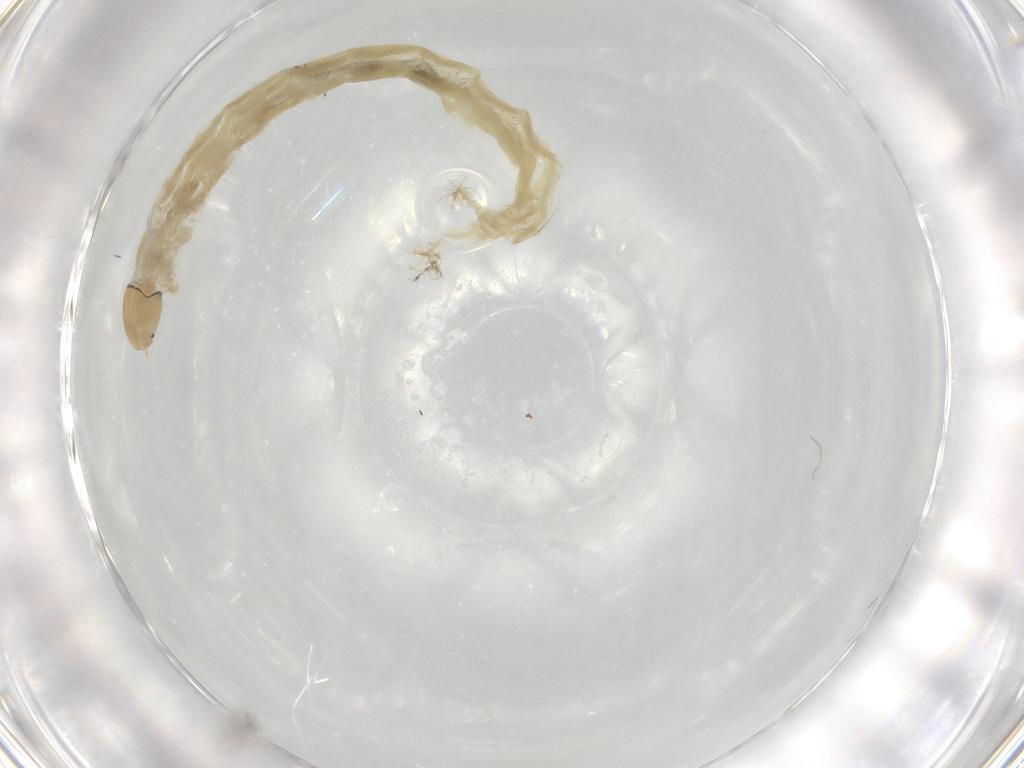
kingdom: Animalia
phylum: Arthropoda
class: Insecta
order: Diptera
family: Chironomidae
